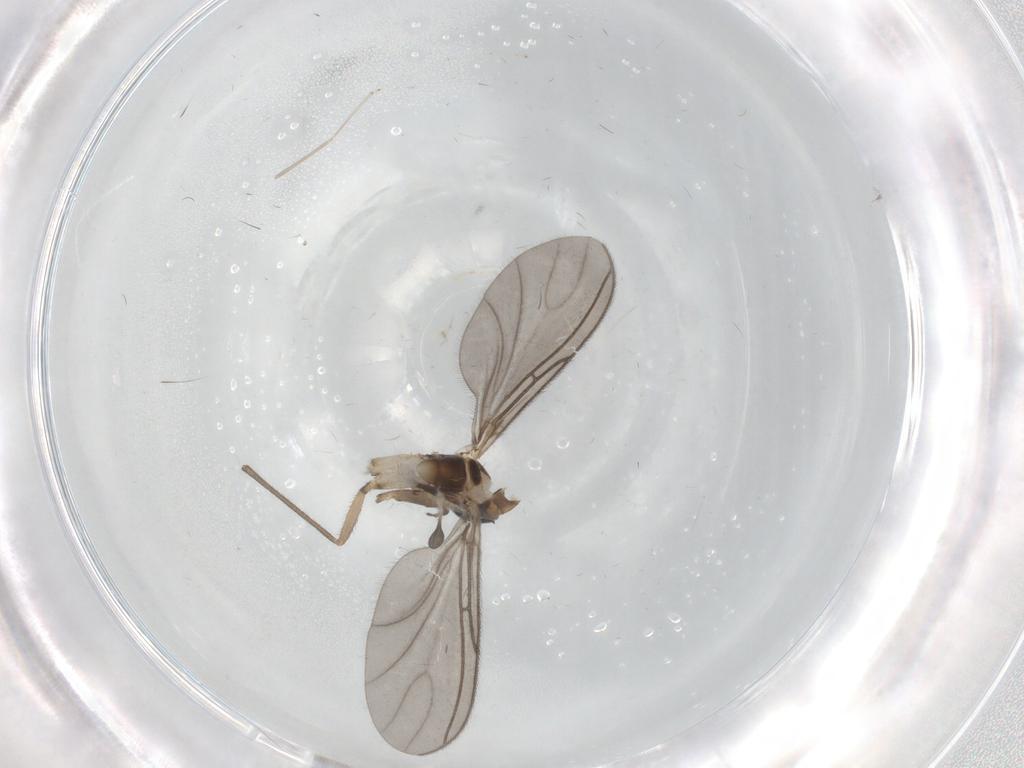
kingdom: Animalia
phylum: Arthropoda
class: Insecta
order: Diptera
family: Sciaridae
